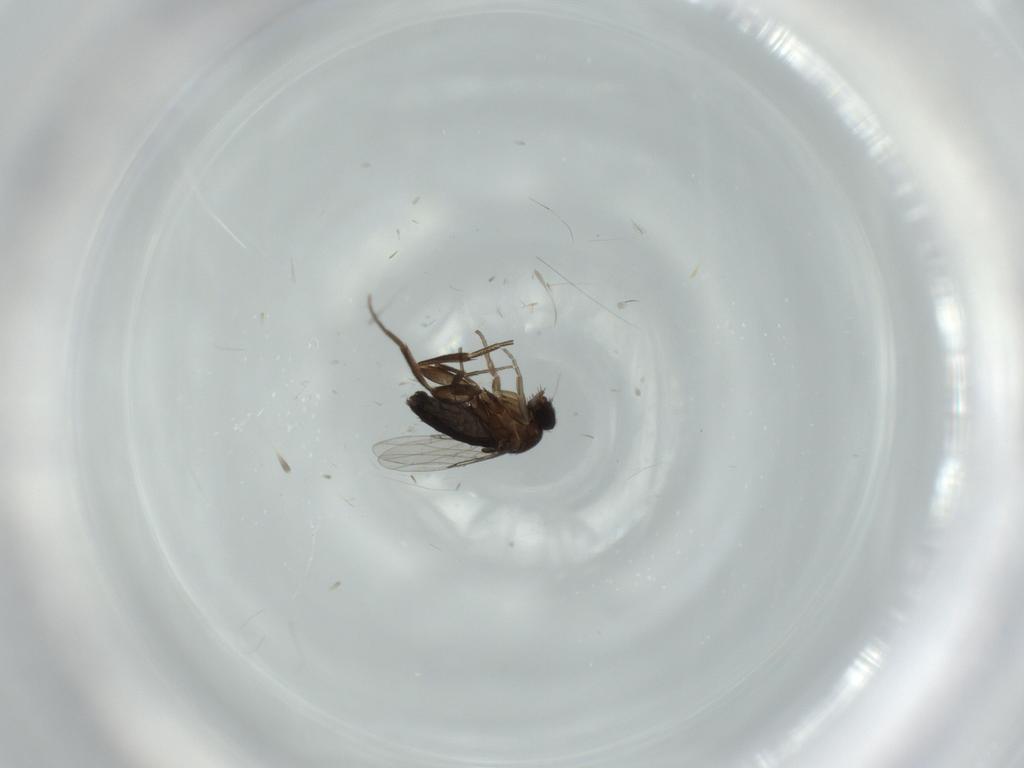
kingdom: Animalia
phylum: Arthropoda
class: Insecta
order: Diptera
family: Phoridae
